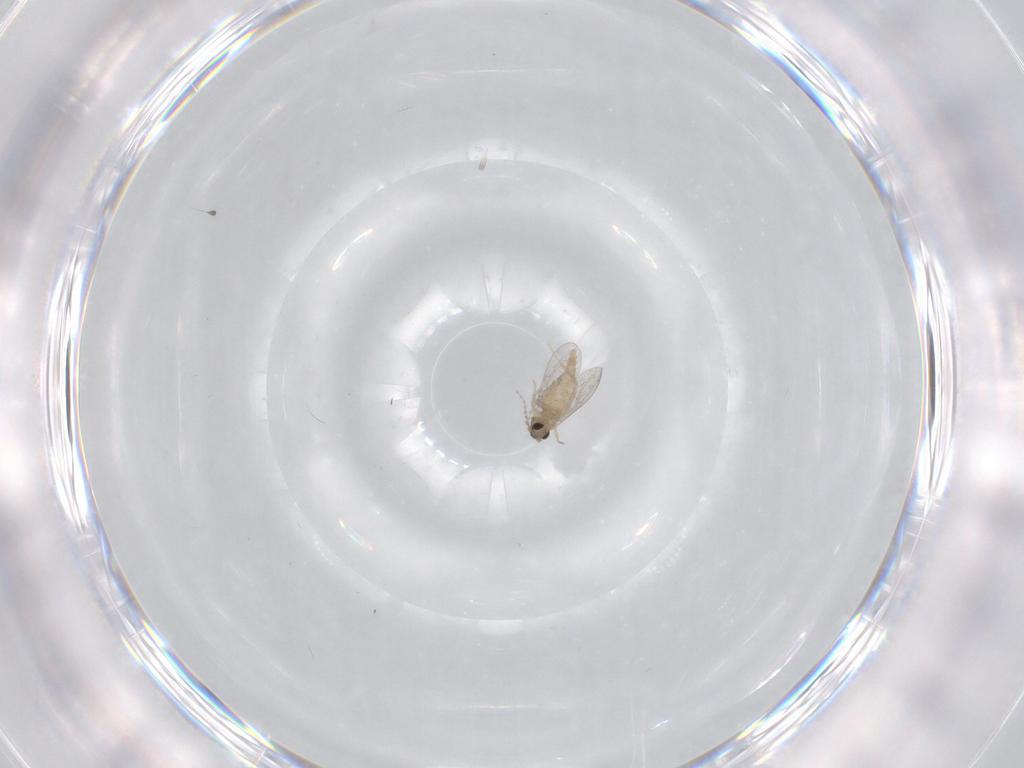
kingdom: Animalia
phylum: Arthropoda
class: Insecta
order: Diptera
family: Cecidomyiidae
